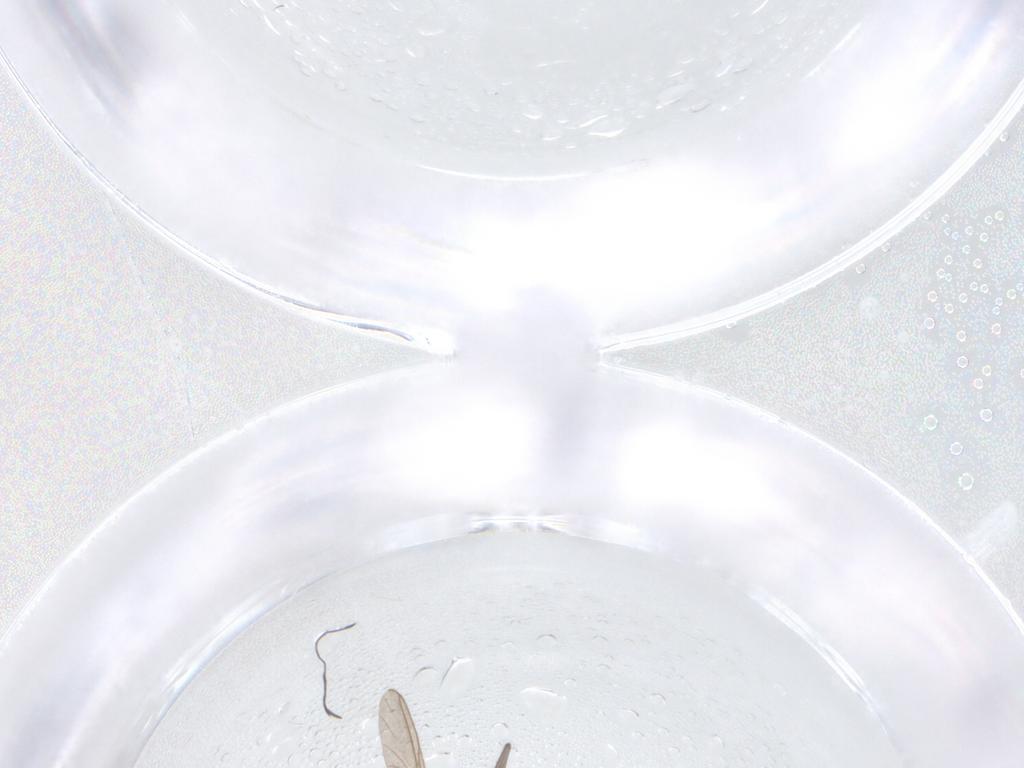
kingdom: Animalia
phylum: Arthropoda
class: Insecta
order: Diptera
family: Sciaridae
